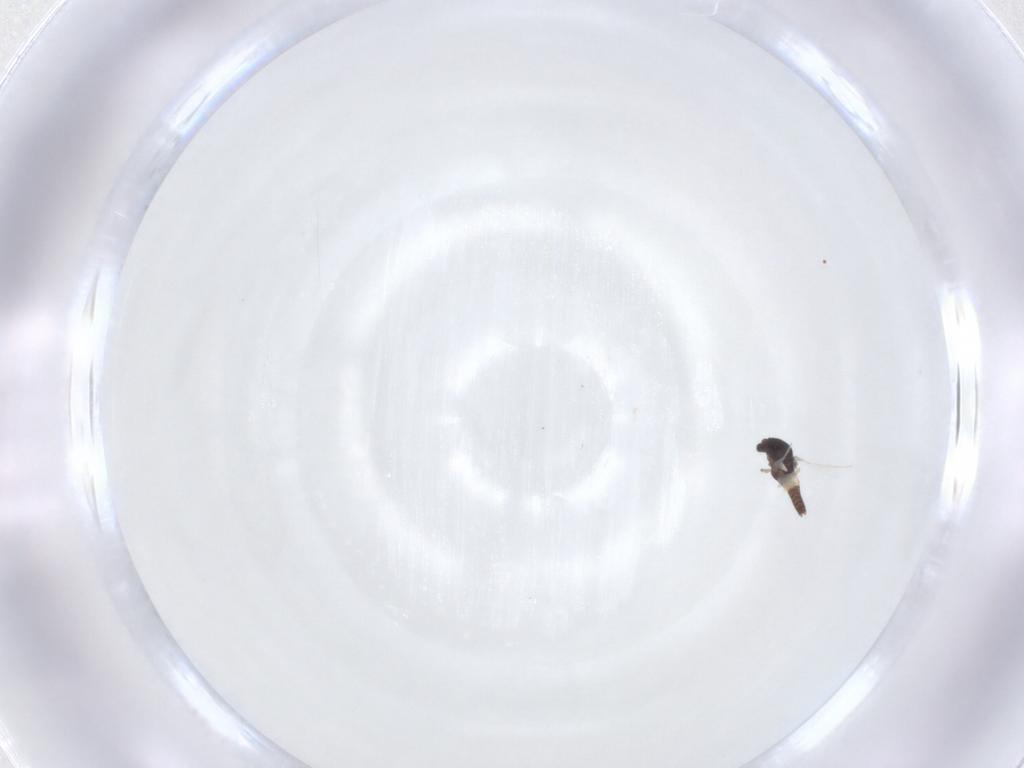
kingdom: Animalia
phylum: Arthropoda
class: Insecta
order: Diptera
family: Chironomidae
